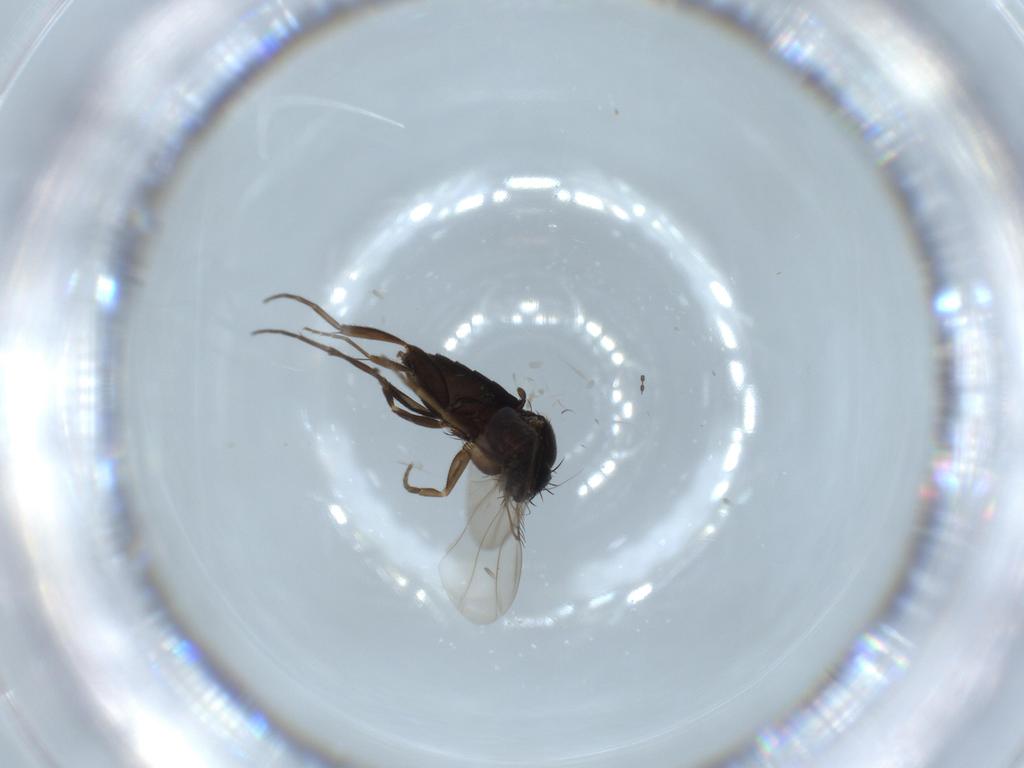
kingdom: Animalia
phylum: Arthropoda
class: Insecta
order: Diptera
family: Phoridae
